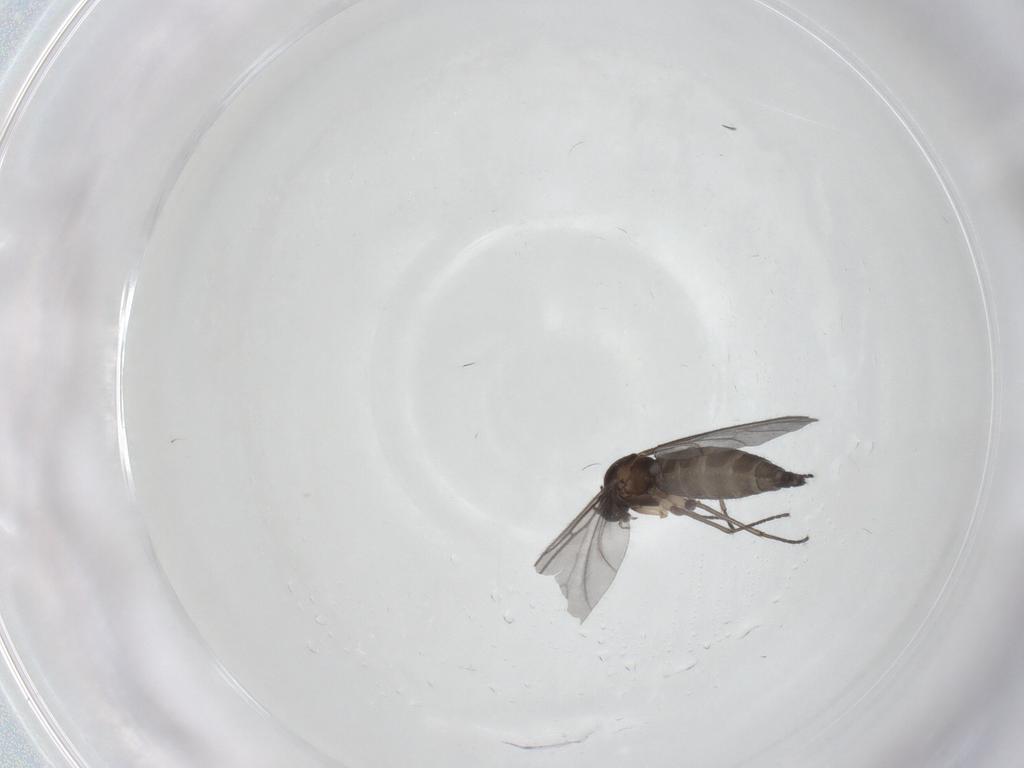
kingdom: Animalia
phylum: Arthropoda
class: Insecta
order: Diptera
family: Sciaridae
